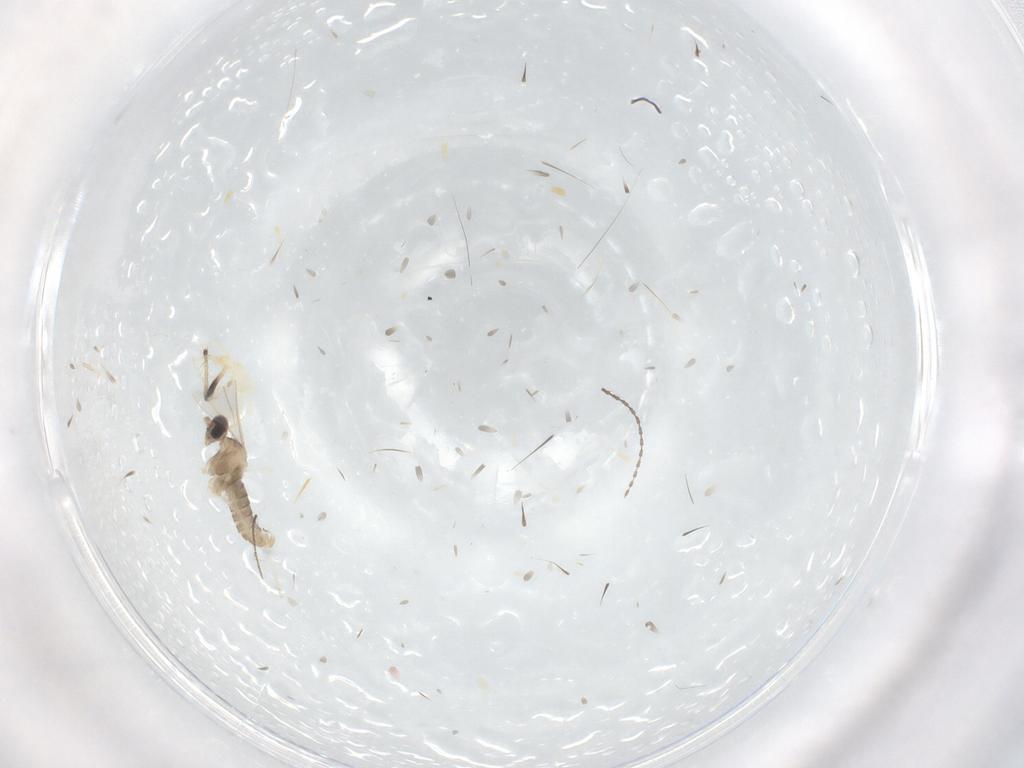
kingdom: Animalia
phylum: Arthropoda
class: Insecta
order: Diptera
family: Cecidomyiidae
